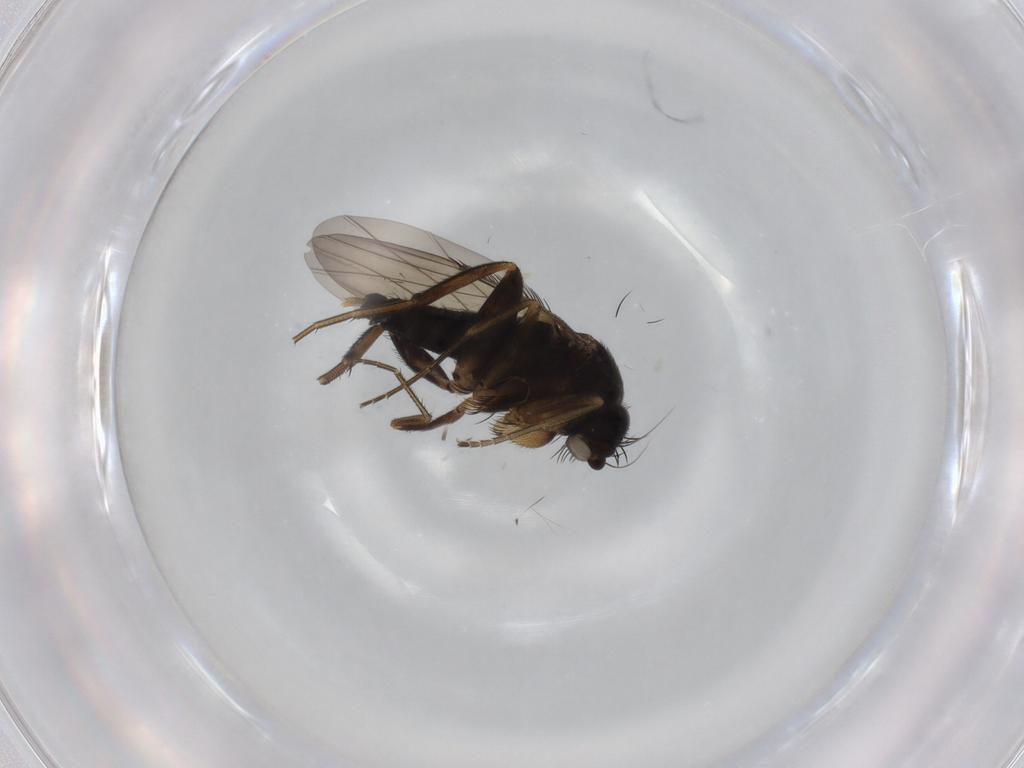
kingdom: Animalia
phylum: Arthropoda
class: Insecta
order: Diptera
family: Phoridae
